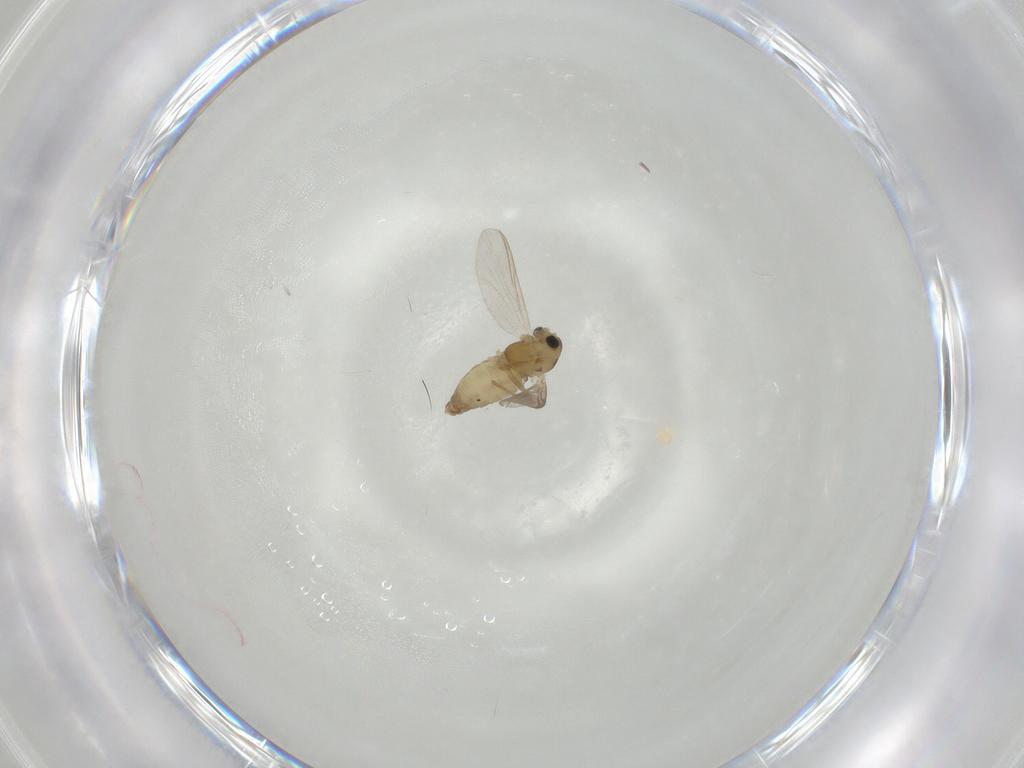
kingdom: Animalia
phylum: Arthropoda
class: Insecta
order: Diptera
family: Chironomidae
